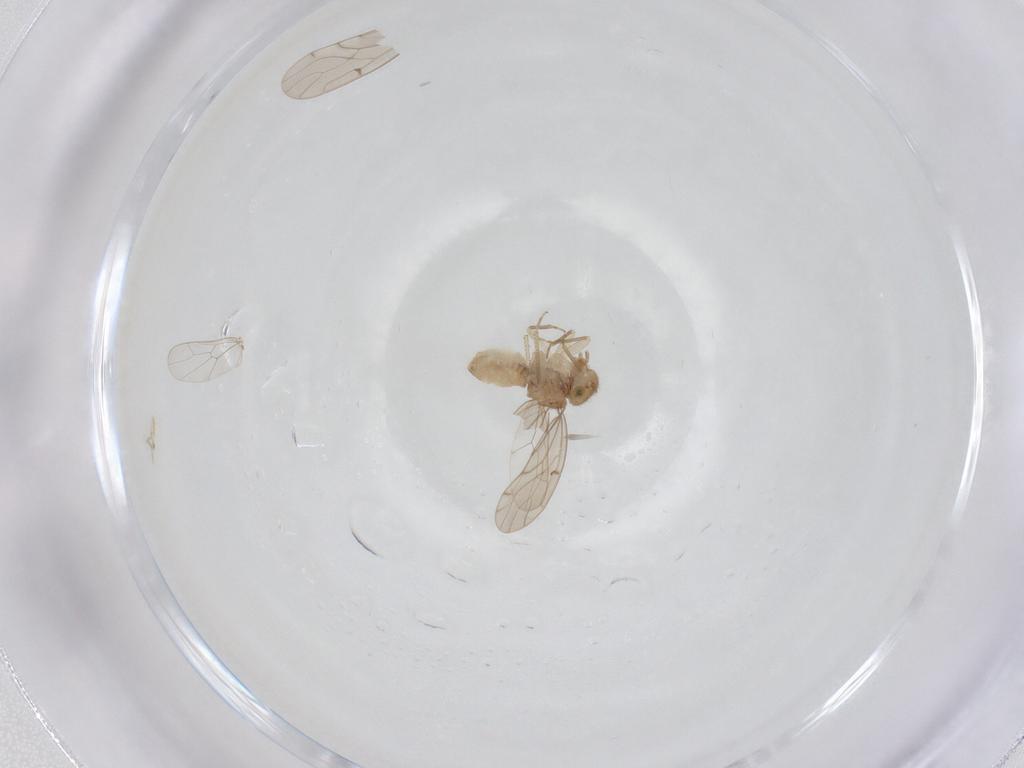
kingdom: Animalia
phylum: Arthropoda
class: Insecta
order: Psocodea
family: Ectopsocidae
